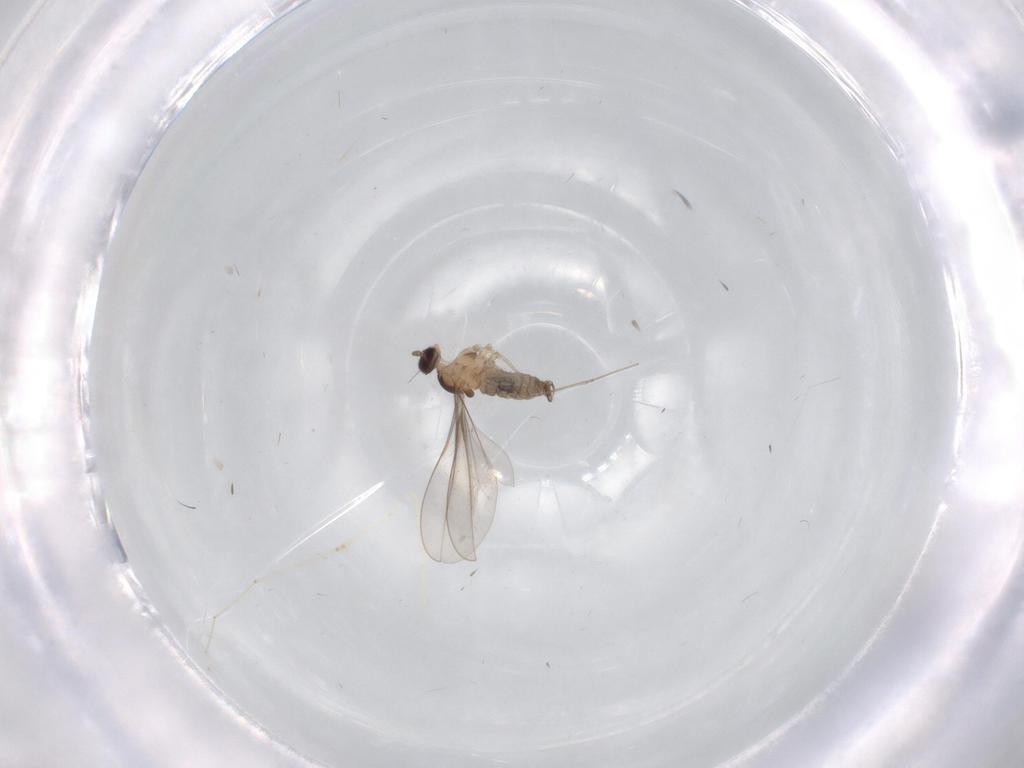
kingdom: Animalia
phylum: Arthropoda
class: Insecta
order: Diptera
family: Cecidomyiidae
